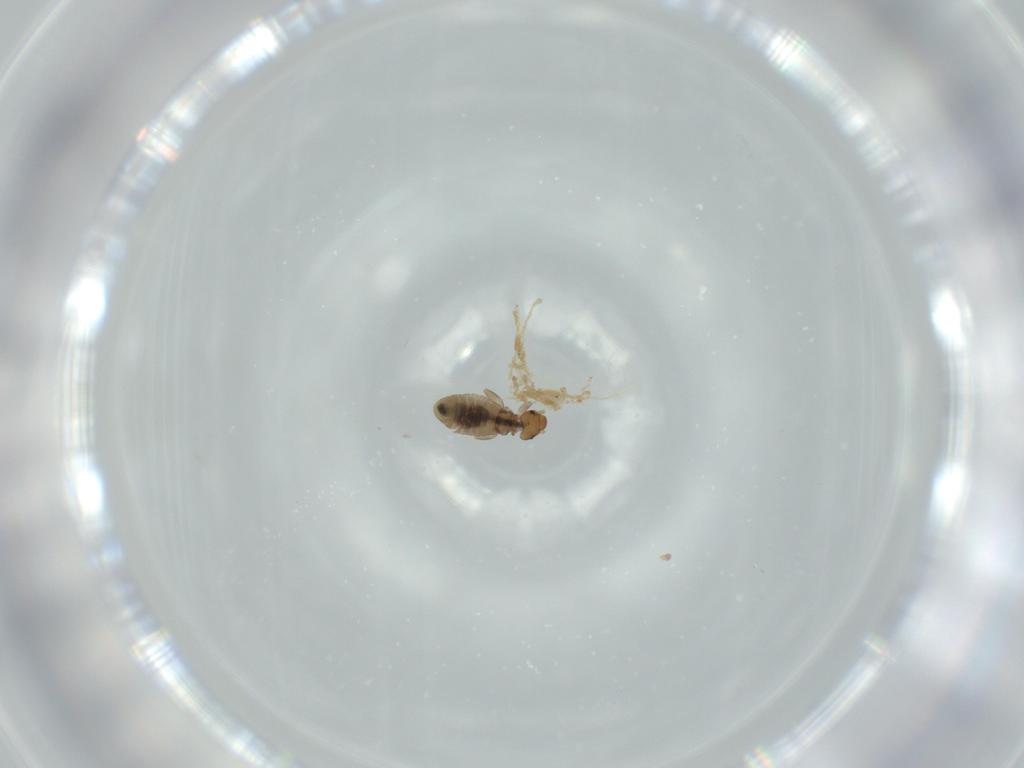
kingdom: Animalia
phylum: Arthropoda
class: Insecta
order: Psocodea
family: Liposcelididae
